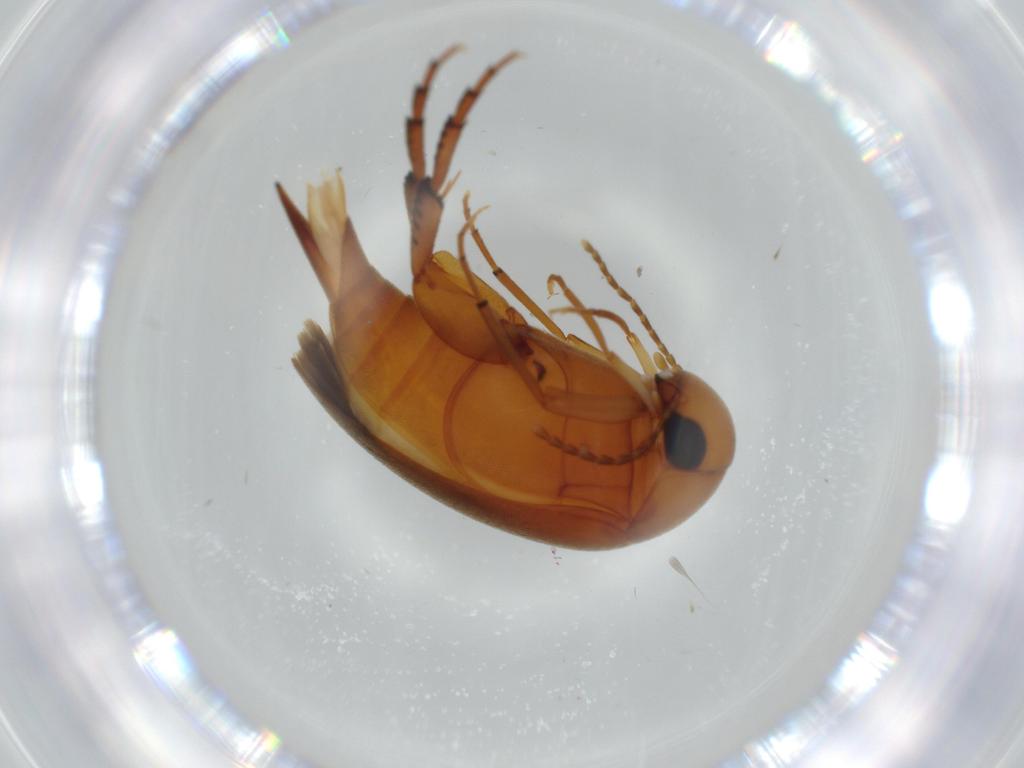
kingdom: Animalia
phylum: Arthropoda
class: Insecta
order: Coleoptera
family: Mordellidae
